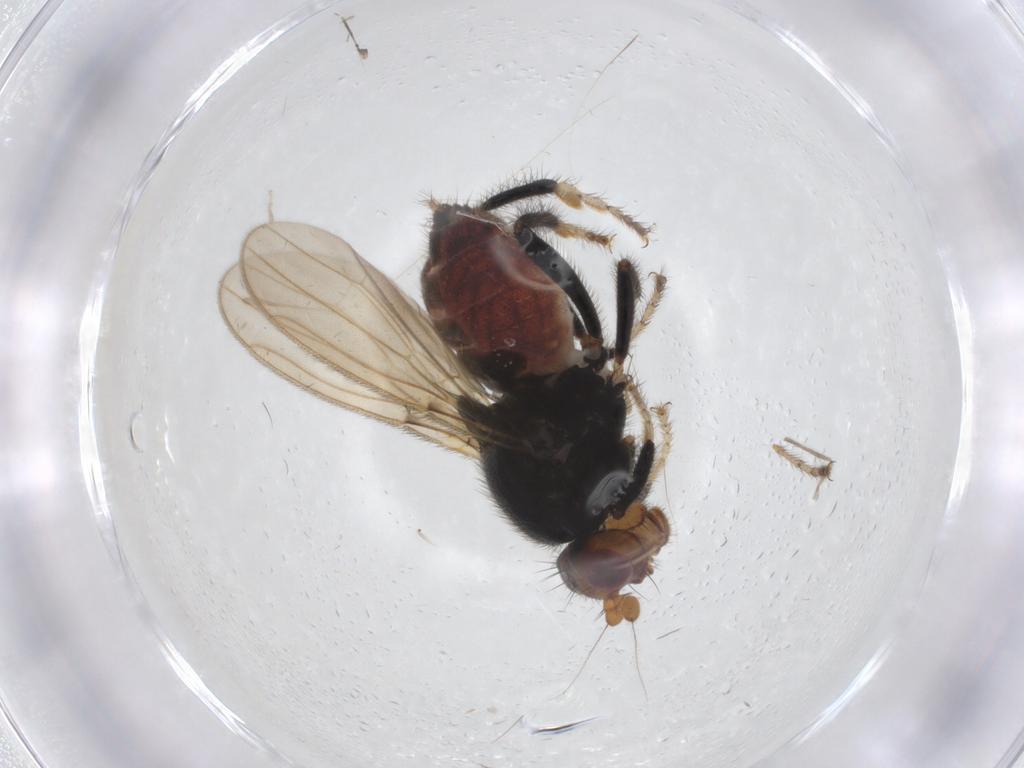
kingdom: Animalia
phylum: Arthropoda
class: Insecta
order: Diptera
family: Sphaeroceridae
